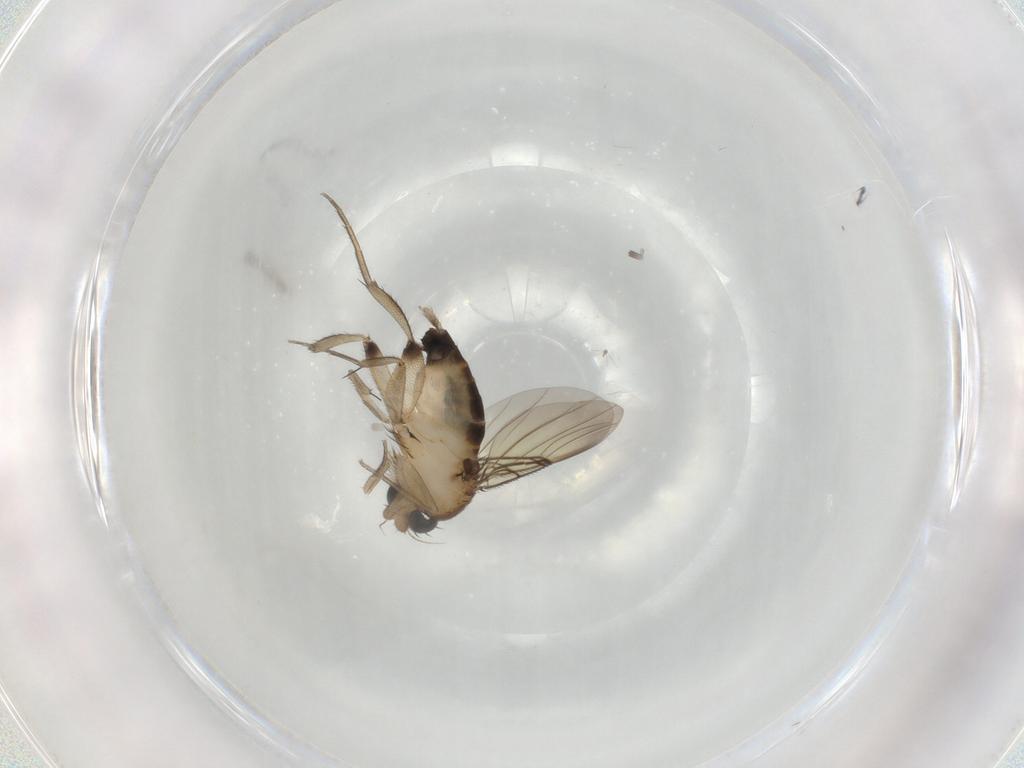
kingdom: Animalia
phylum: Arthropoda
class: Insecta
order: Diptera
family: Phoridae
